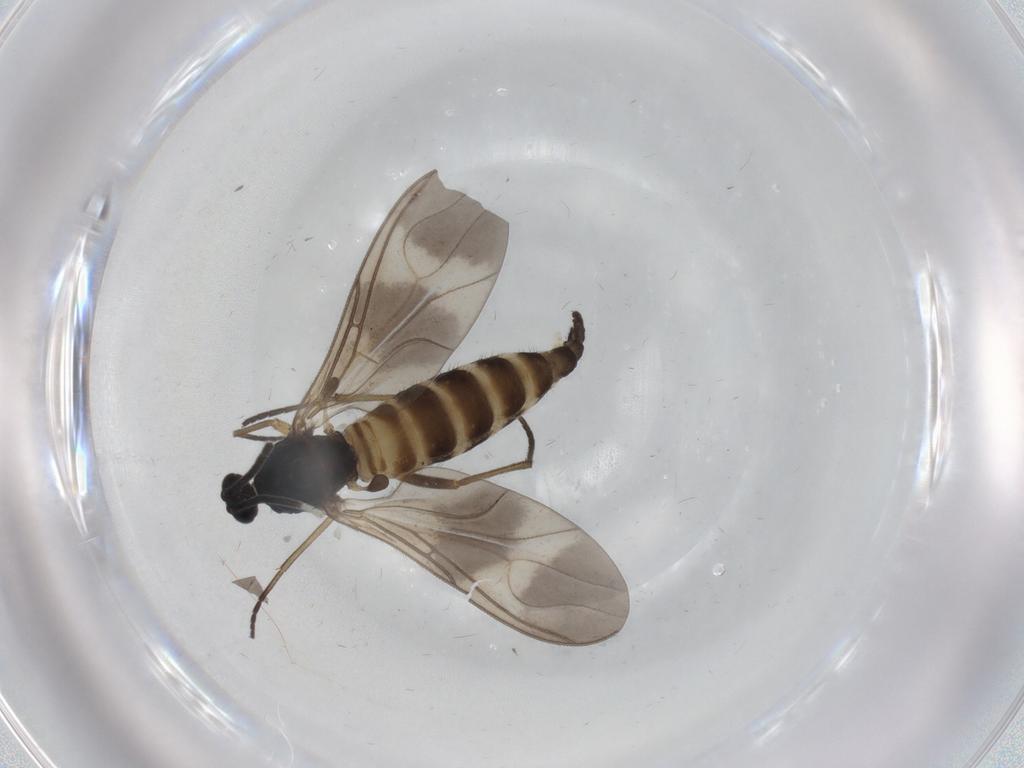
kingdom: Animalia
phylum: Arthropoda
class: Insecta
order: Diptera
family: Sciaridae
